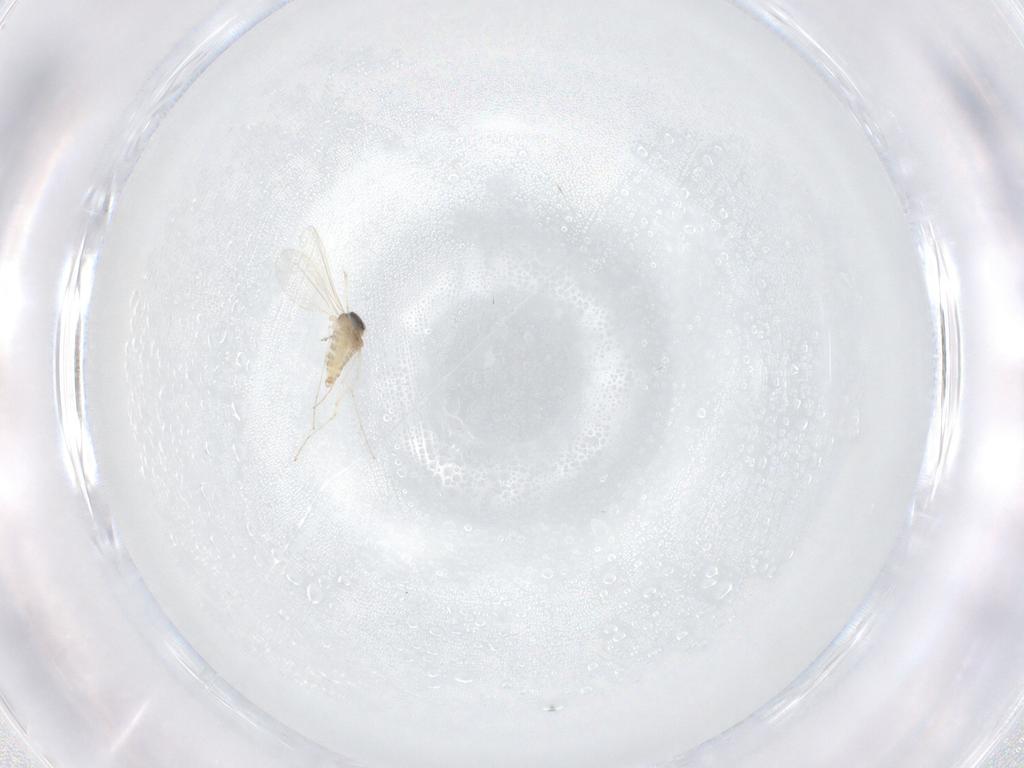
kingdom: Animalia
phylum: Arthropoda
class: Insecta
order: Diptera
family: Cecidomyiidae
